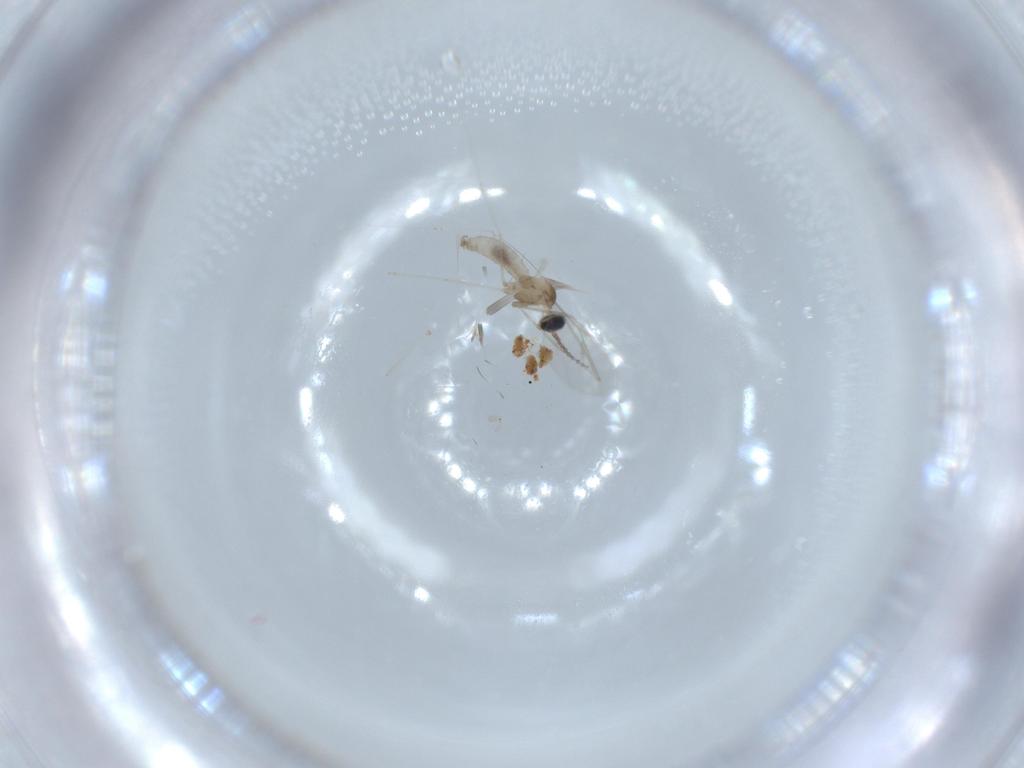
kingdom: Animalia
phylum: Arthropoda
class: Insecta
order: Diptera
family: Cecidomyiidae
